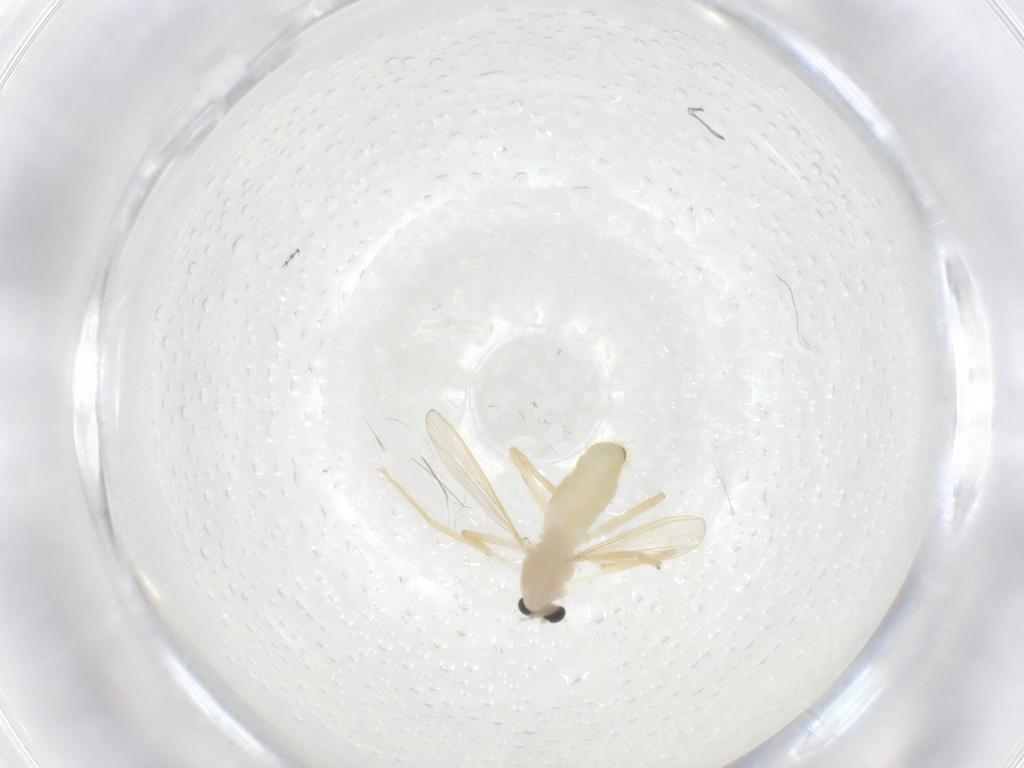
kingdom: Animalia
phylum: Arthropoda
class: Insecta
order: Diptera
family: Chironomidae
